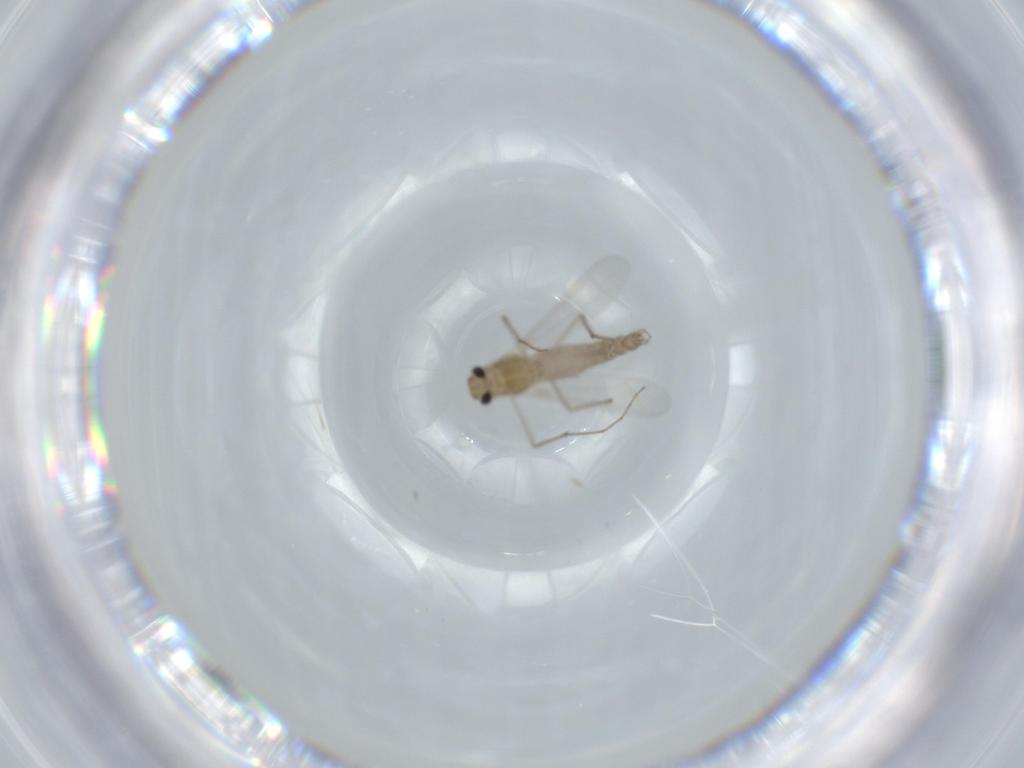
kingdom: Animalia
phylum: Arthropoda
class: Insecta
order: Diptera
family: Chironomidae
